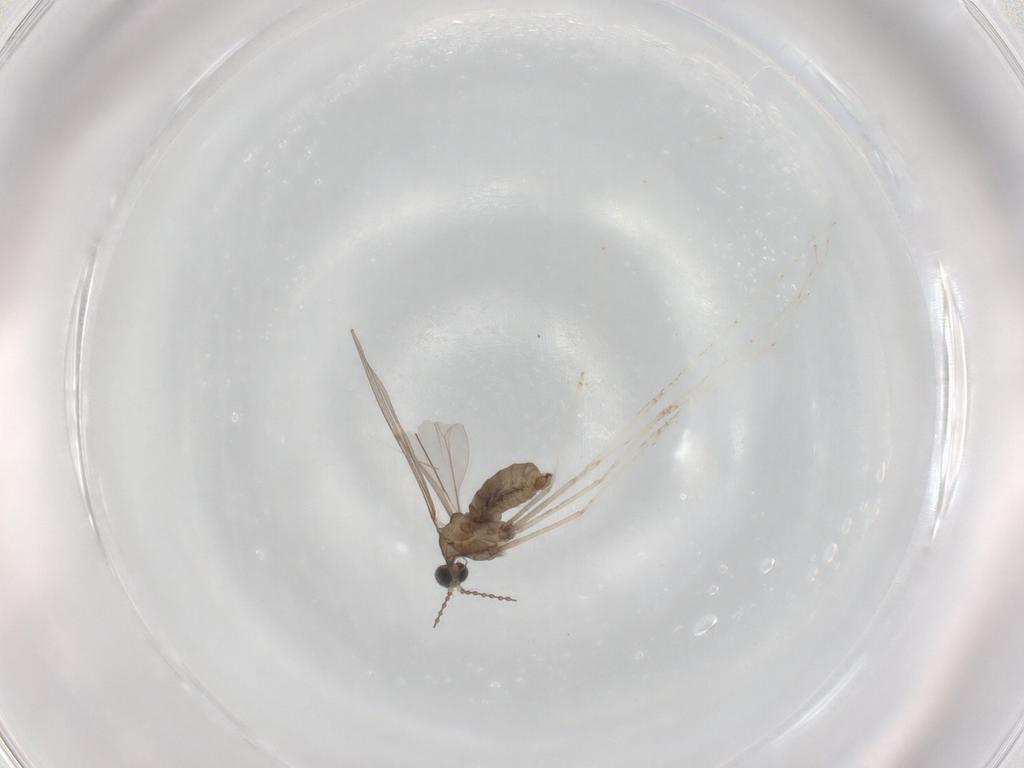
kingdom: Animalia
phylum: Arthropoda
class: Insecta
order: Diptera
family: Cecidomyiidae
